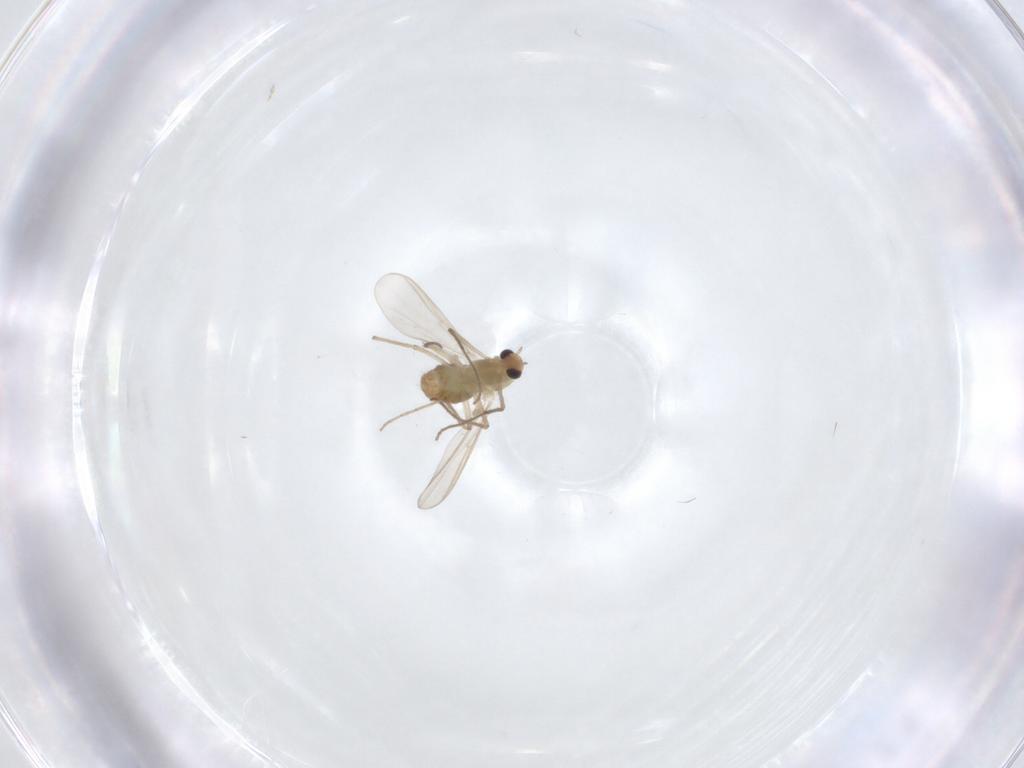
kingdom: Animalia
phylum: Arthropoda
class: Insecta
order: Diptera
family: Chironomidae
